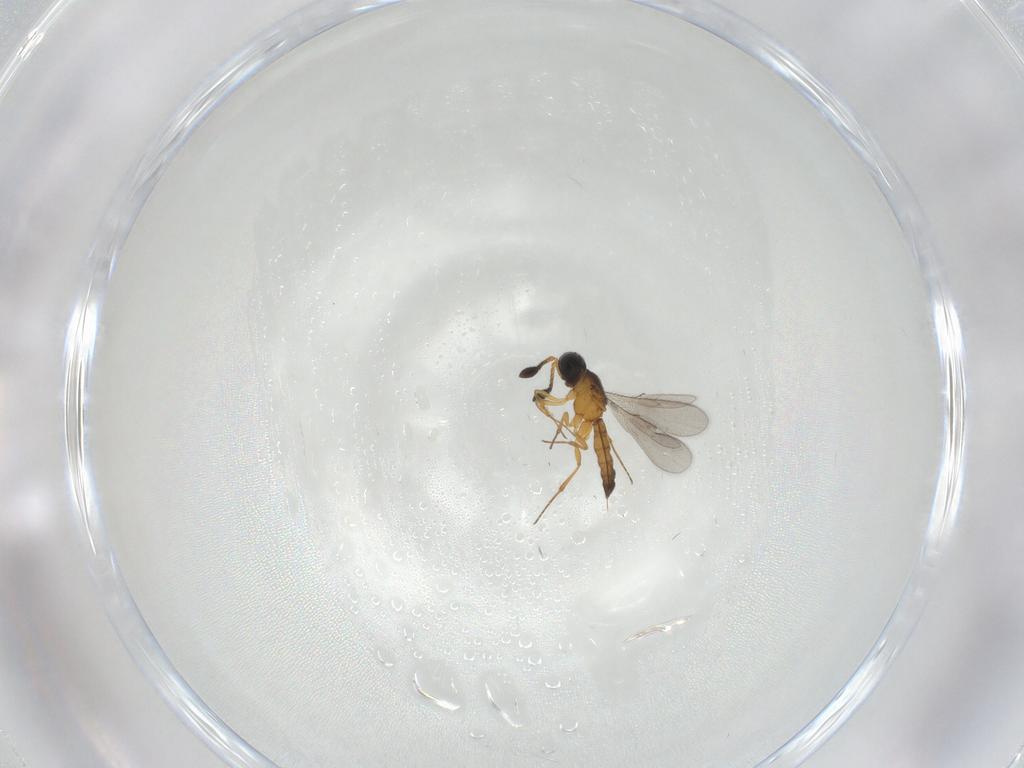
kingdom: Animalia
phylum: Arthropoda
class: Insecta
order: Hymenoptera
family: Scelionidae
